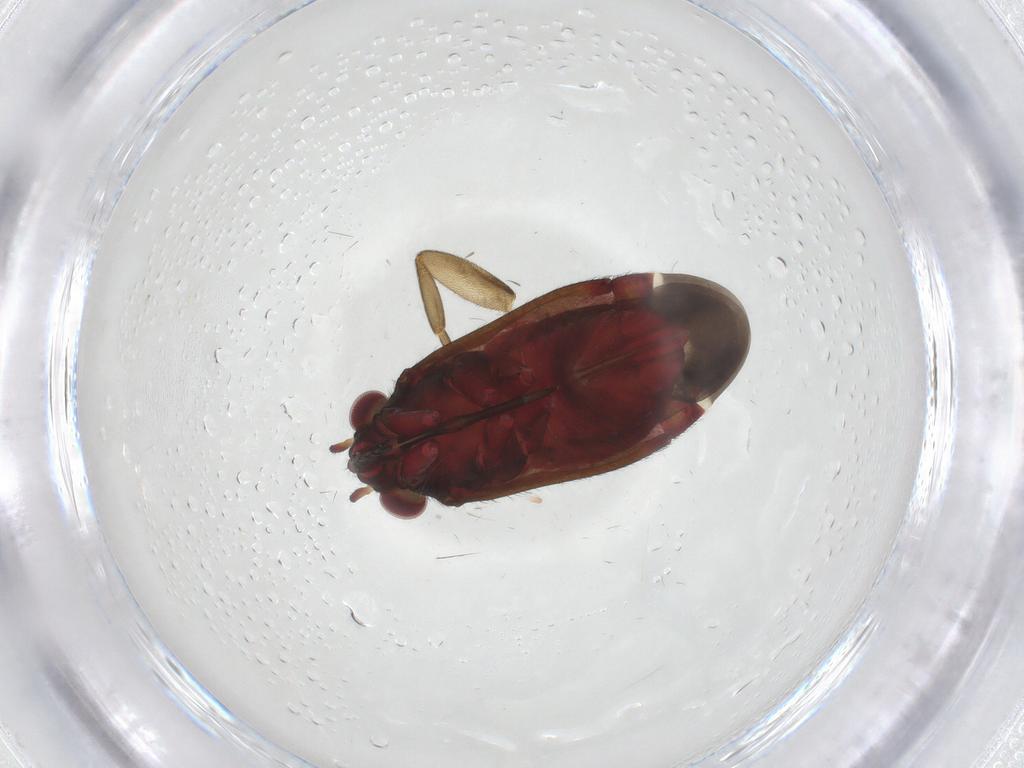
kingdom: Animalia
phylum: Arthropoda
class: Insecta
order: Hemiptera
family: Miridae
